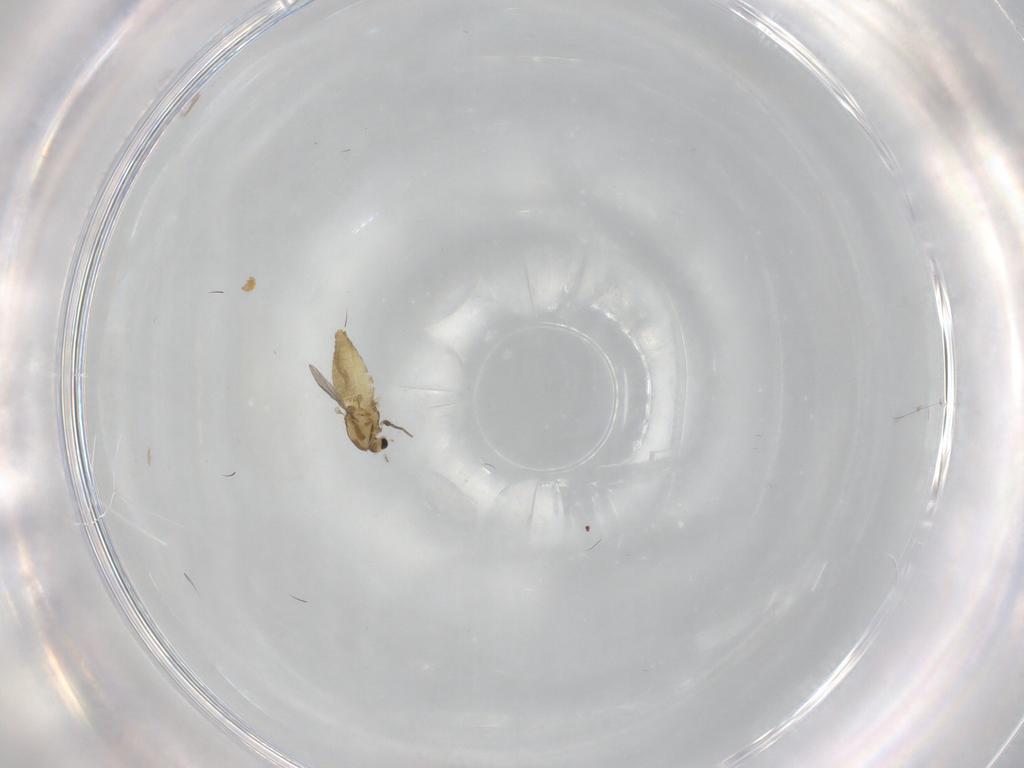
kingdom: Animalia
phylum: Arthropoda
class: Insecta
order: Diptera
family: Chironomidae
